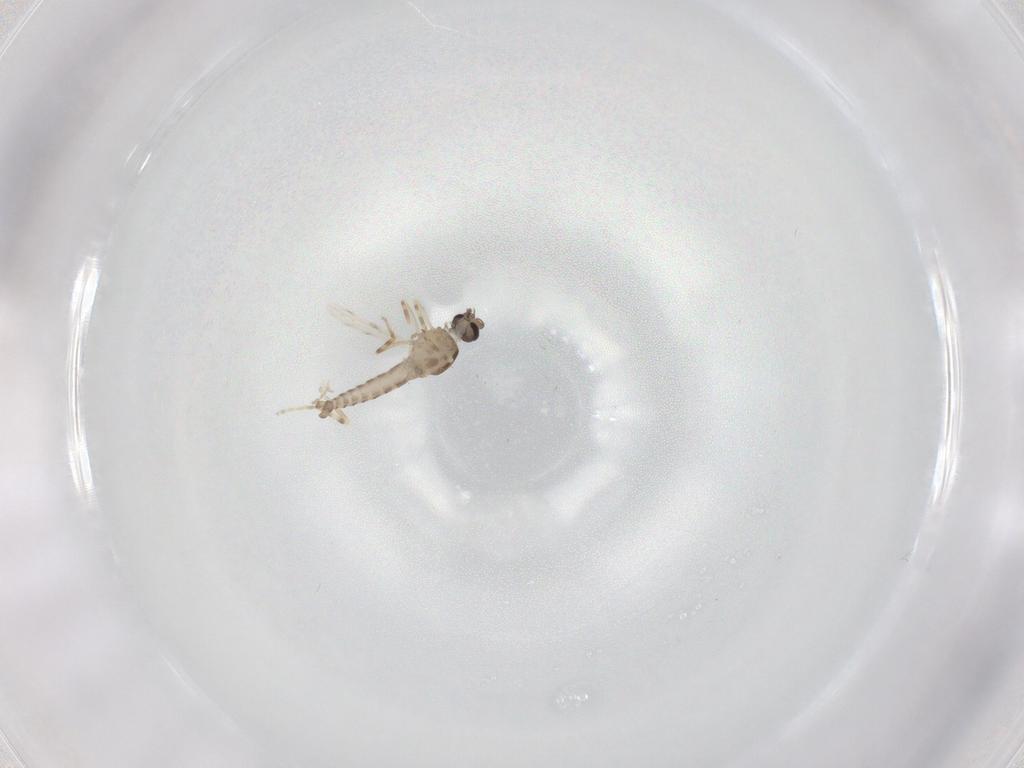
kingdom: Animalia
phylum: Arthropoda
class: Insecta
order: Diptera
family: Ceratopogonidae
